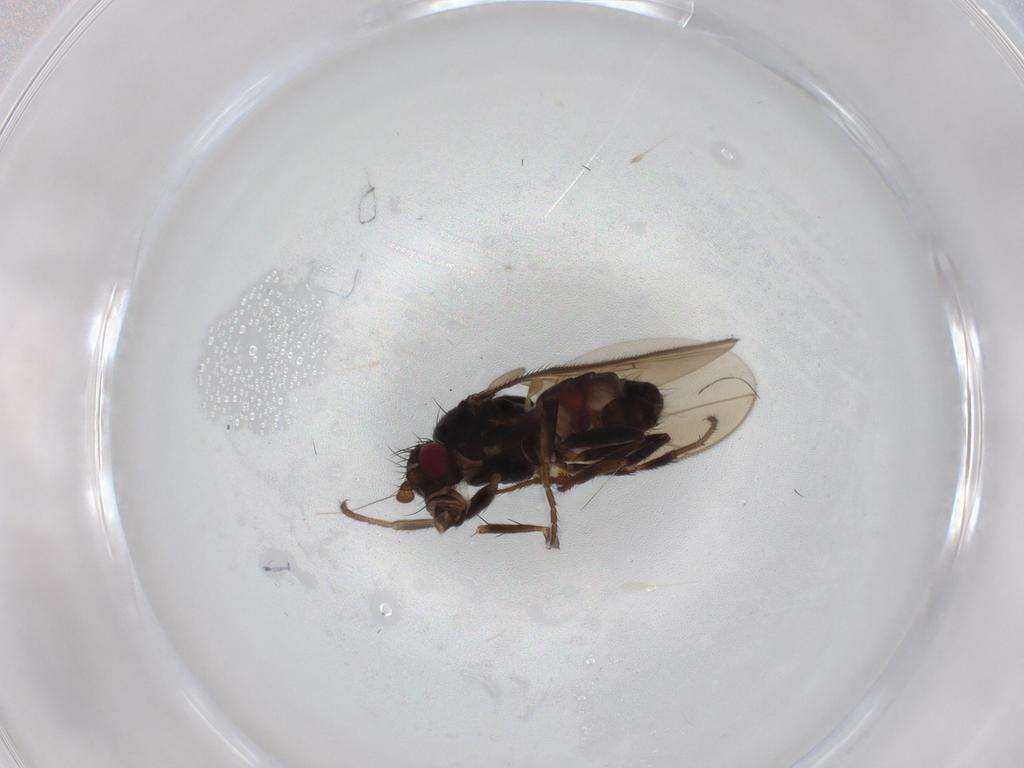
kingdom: Animalia
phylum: Arthropoda
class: Insecta
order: Diptera
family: Sphaeroceridae
